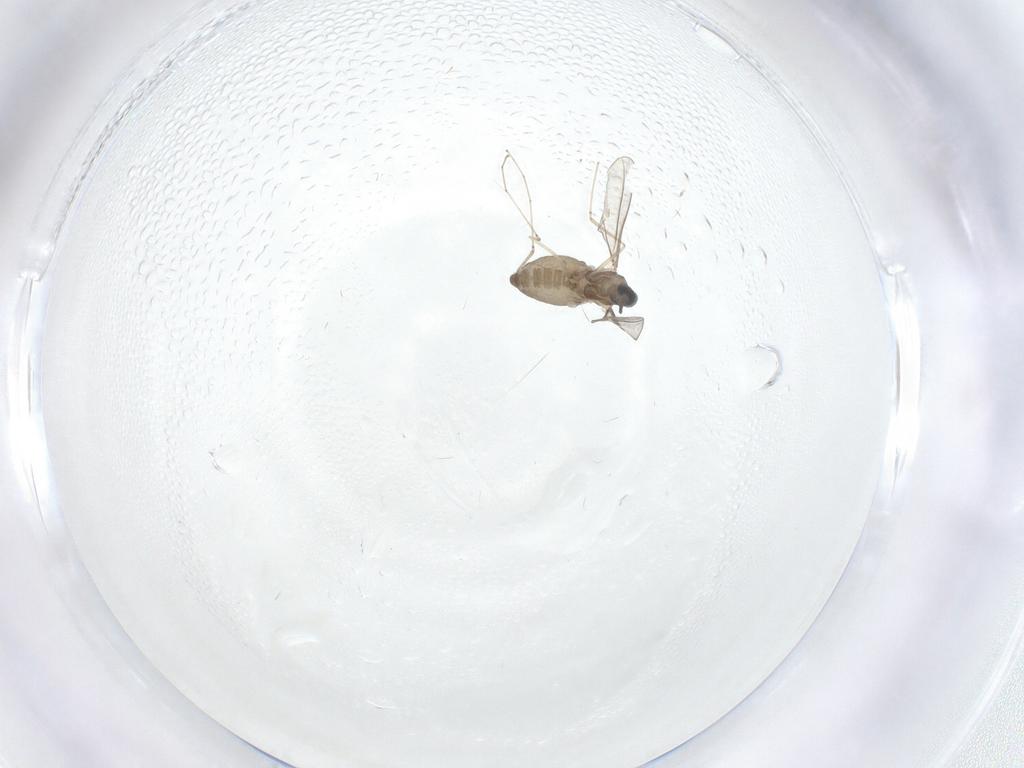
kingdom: Animalia
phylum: Arthropoda
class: Insecta
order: Diptera
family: Cecidomyiidae
